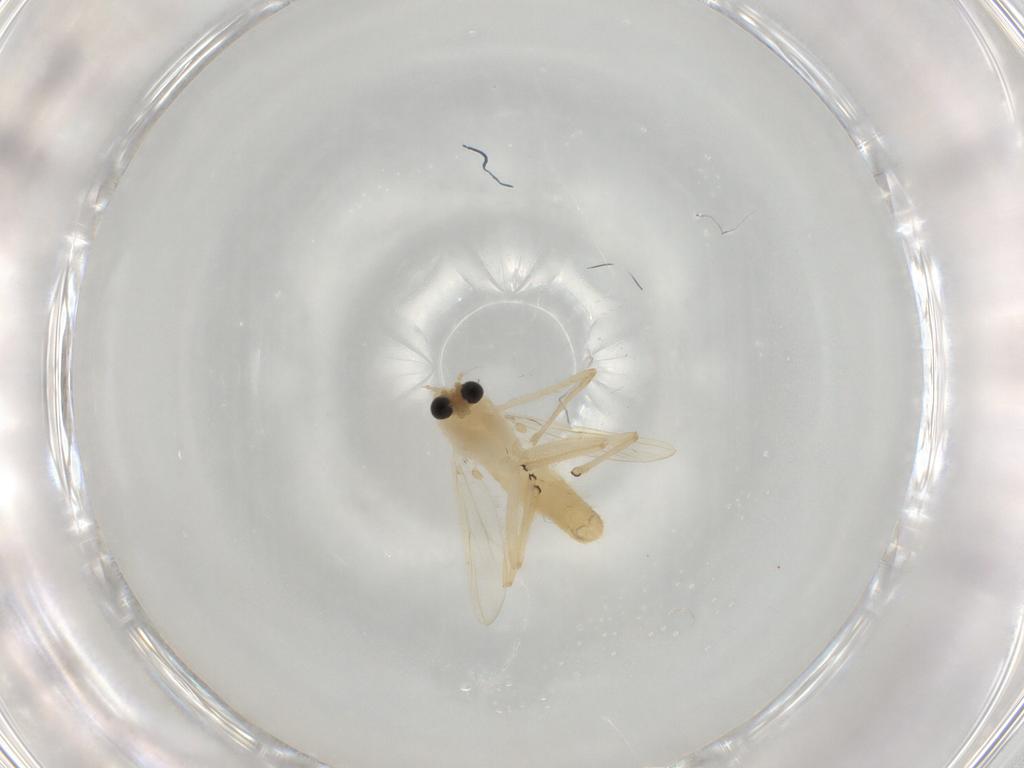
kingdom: Animalia
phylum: Arthropoda
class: Insecta
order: Diptera
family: Chironomidae
